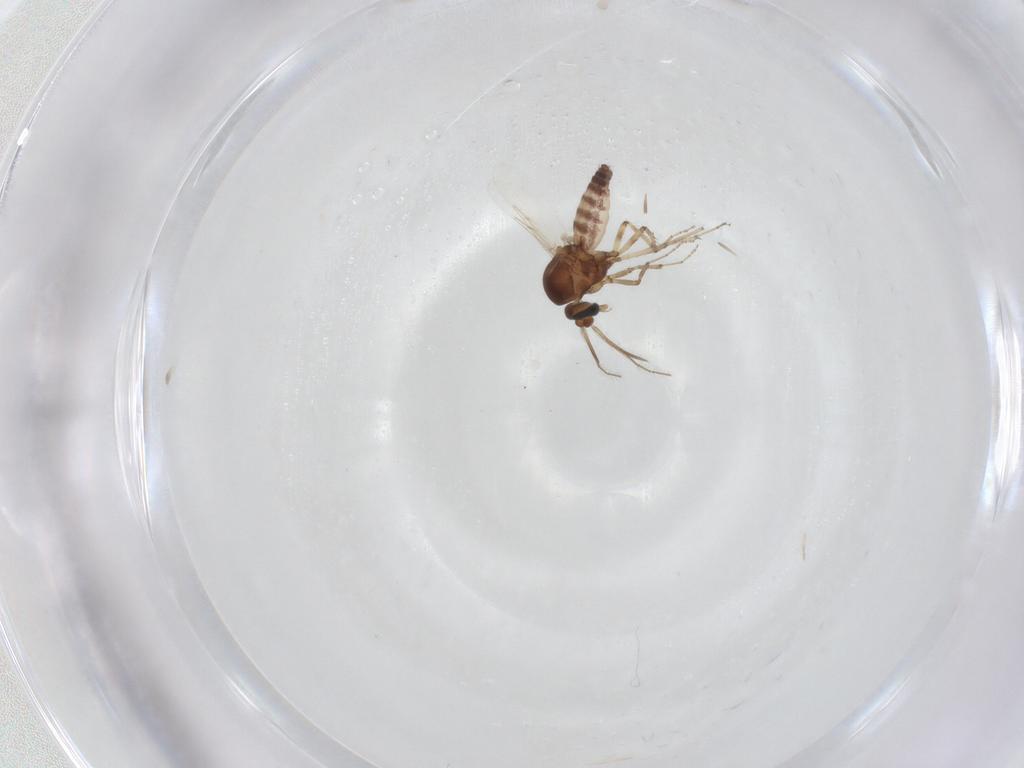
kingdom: Animalia
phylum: Arthropoda
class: Insecta
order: Diptera
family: Ceratopogonidae
